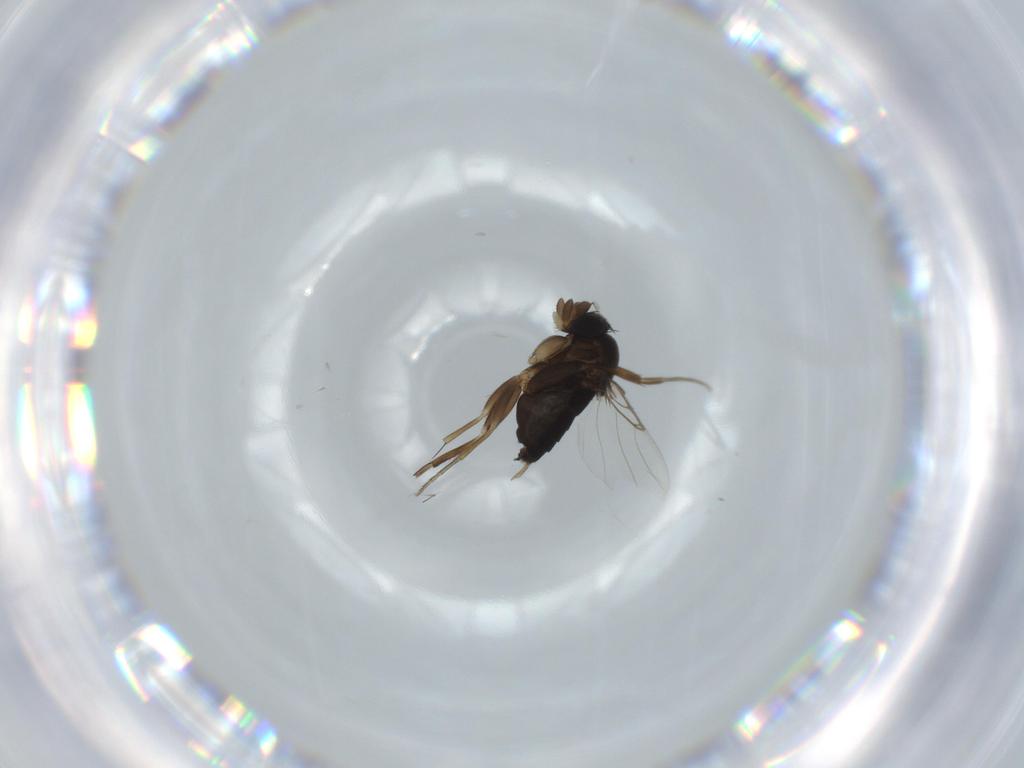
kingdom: Animalia
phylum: Arthropoda
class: Insecta
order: Diptera
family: Phoridae
